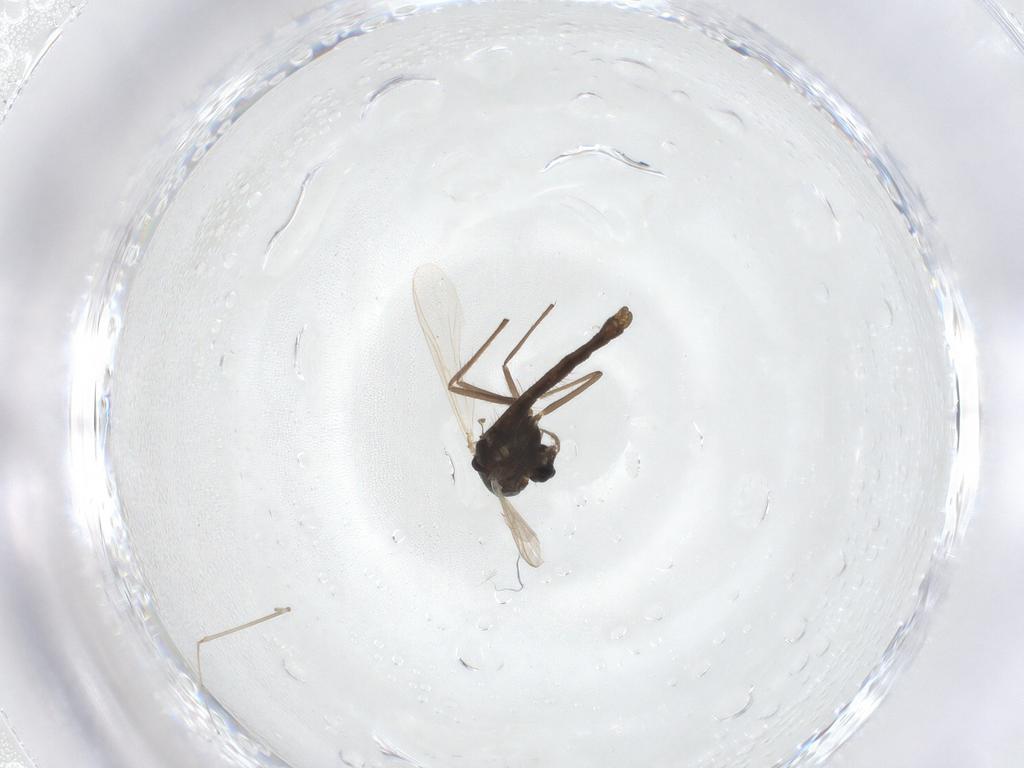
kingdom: Animalia
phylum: Arthropoda
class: Insecta
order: Diptera
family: Chironomidae
